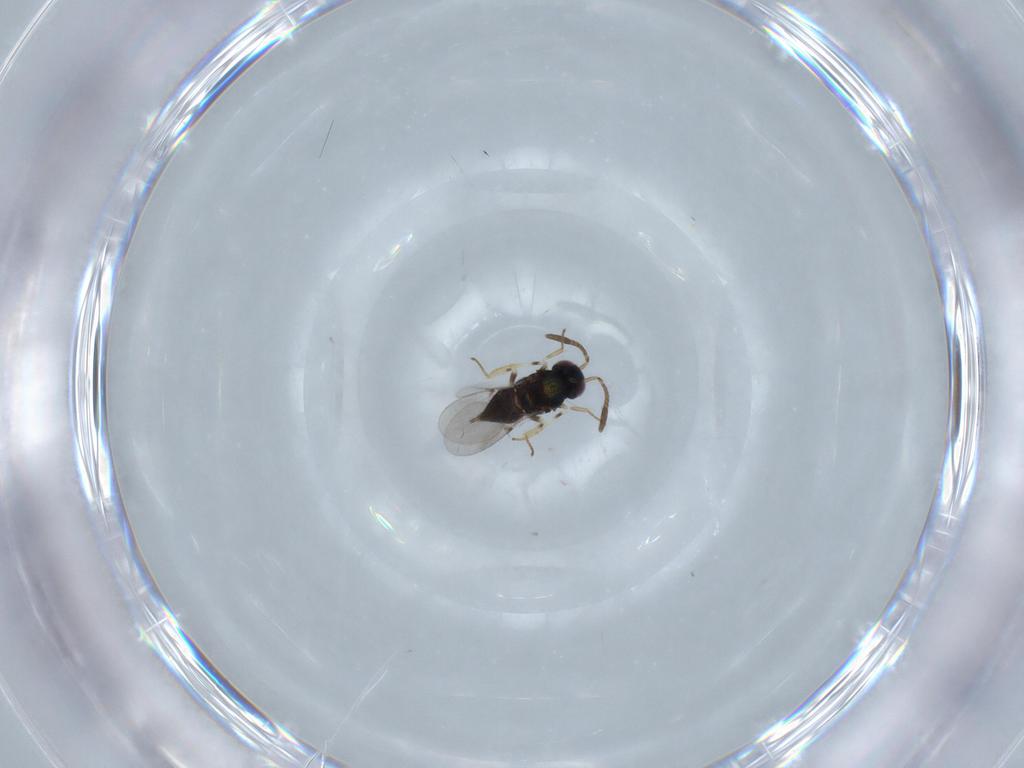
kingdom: Animalia
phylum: Arthropoda
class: Insecta
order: Hymenoptera
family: Encyrtidae
